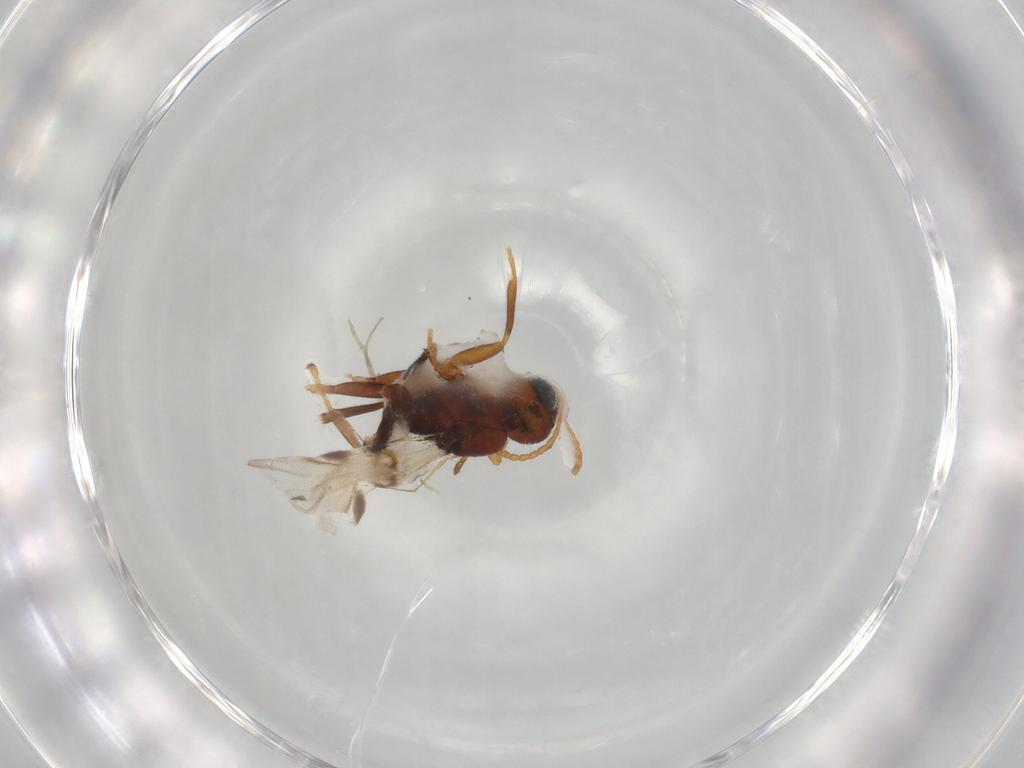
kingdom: Animalia
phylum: Arthropoda
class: Insecta
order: Hymenoptera
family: Braconidae
